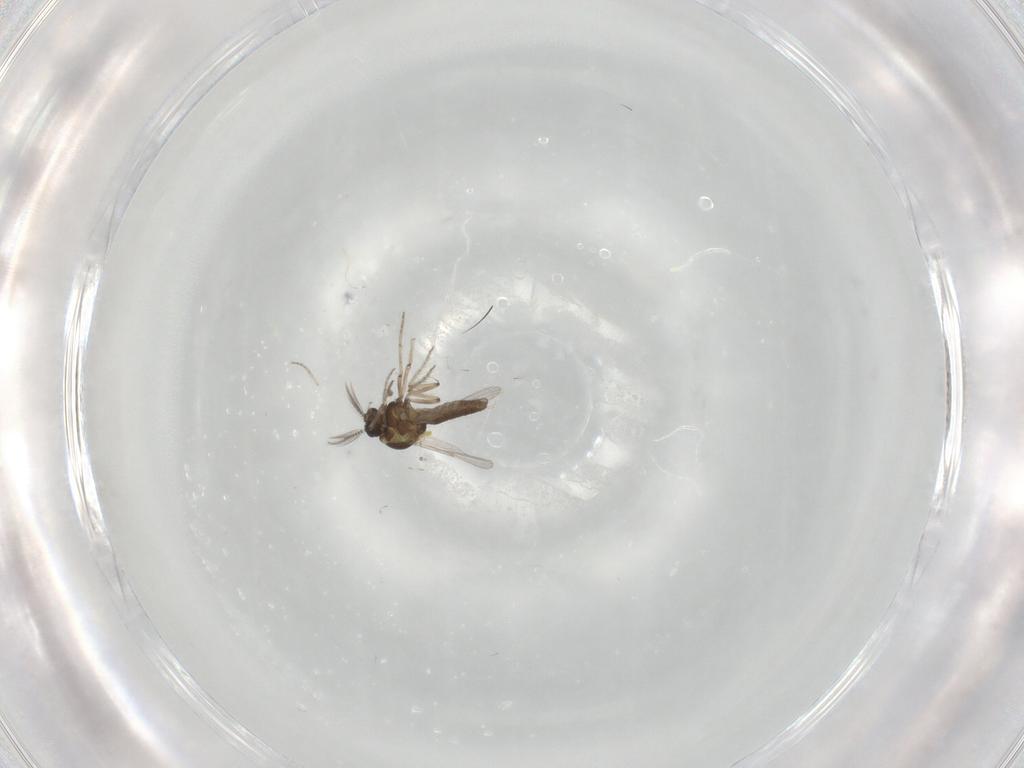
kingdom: Animalia
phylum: Arthropoda
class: Insecta
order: Diptera
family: Ceratopogonidae
